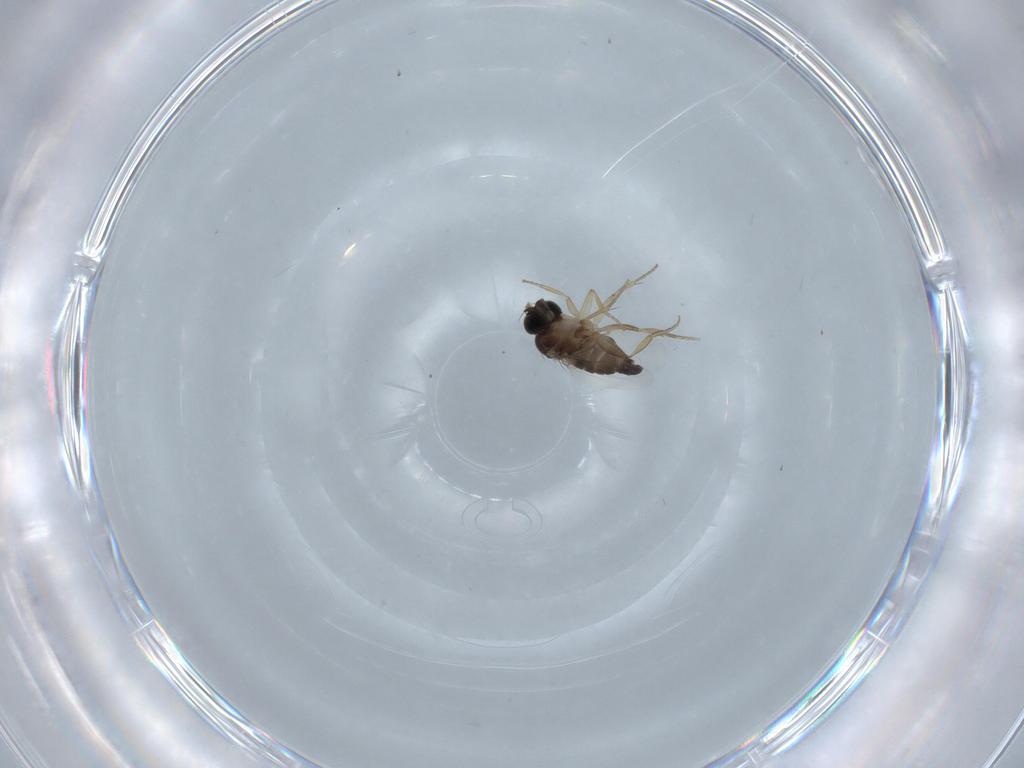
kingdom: Animalia
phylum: Arthropoda
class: Insecta
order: Diptera
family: Phoridae
